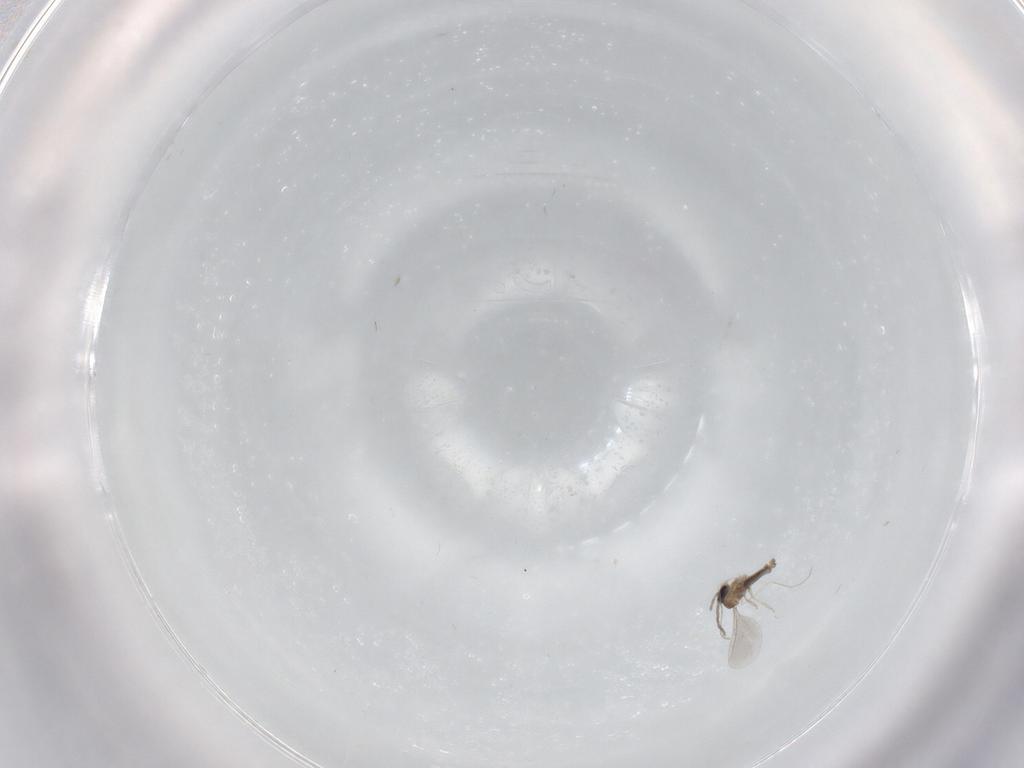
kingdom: Animalia
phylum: Arthropoda
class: Insecta
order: Diptera
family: Cecidomyiidae
